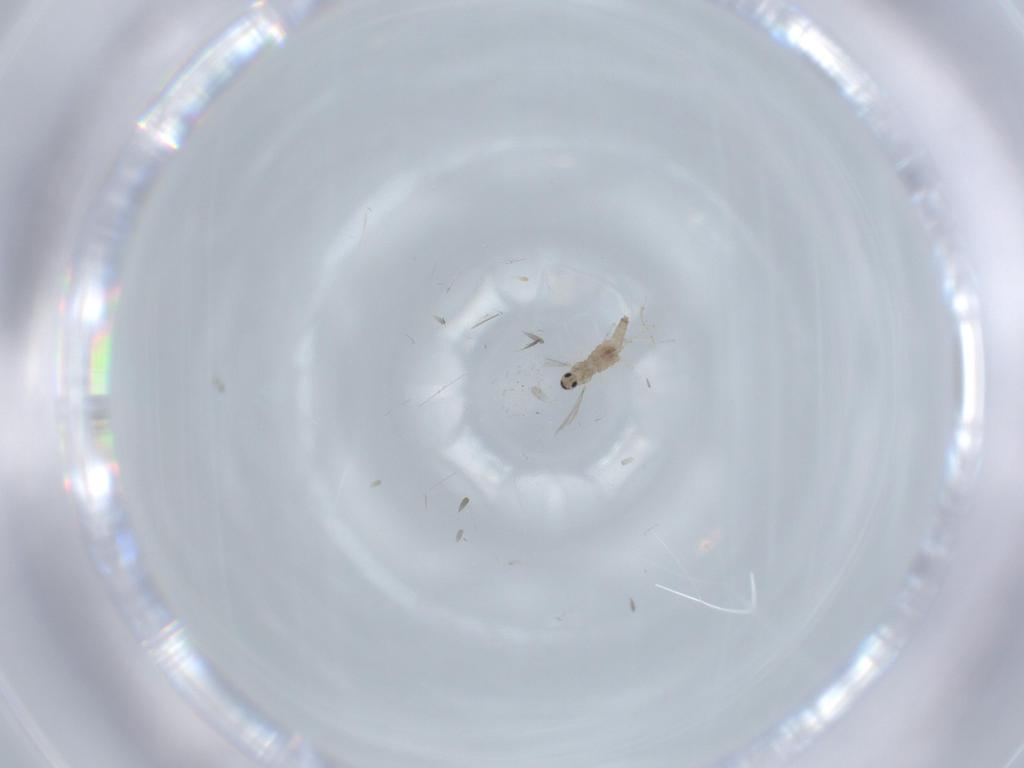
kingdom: Animalia
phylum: Arthropoda
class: Insecta
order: Diptera
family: Cecidomyiidae
